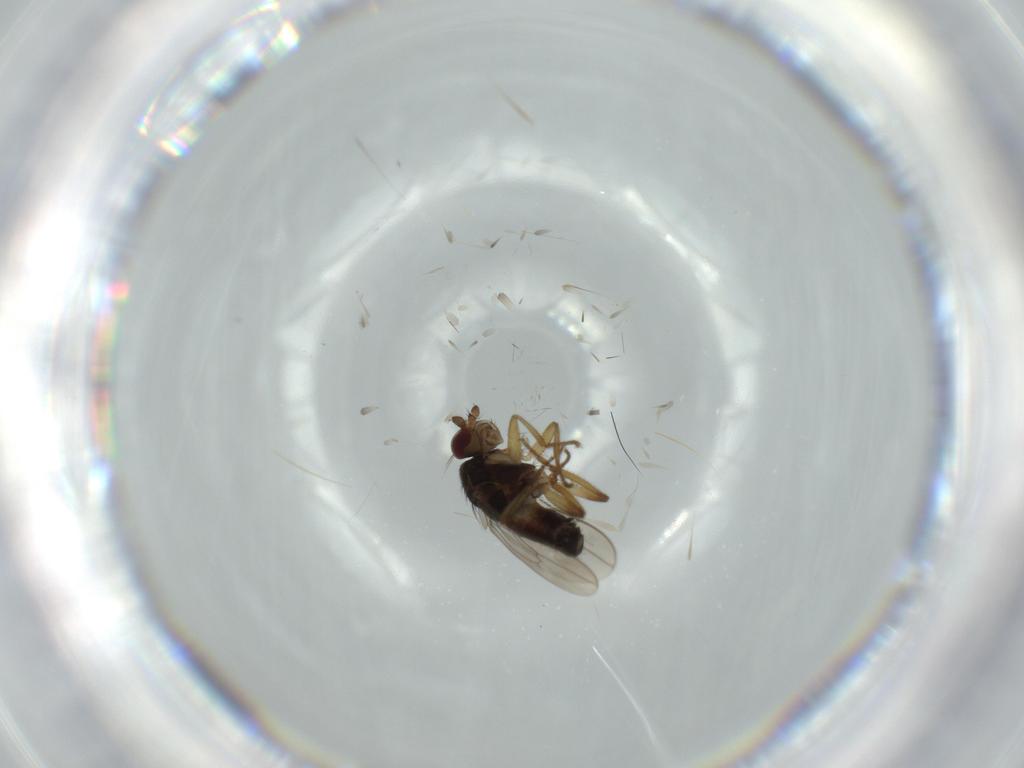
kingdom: Animalia
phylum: Arthropoda
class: Insecta
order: Diptera
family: Sphaeroceridae
